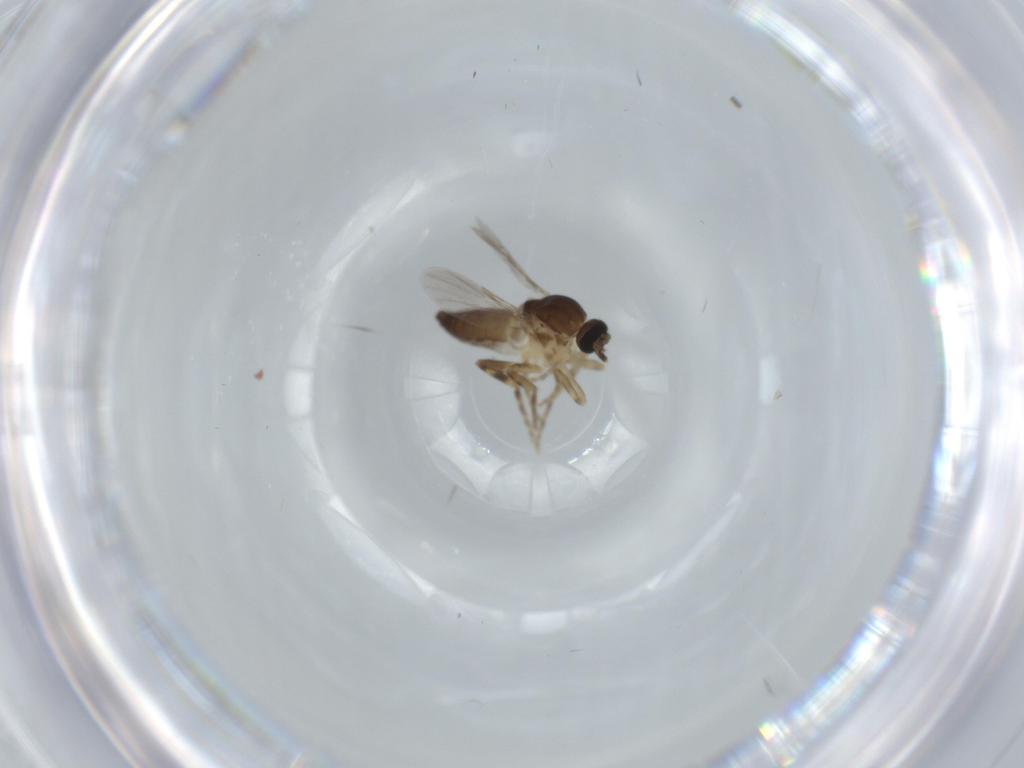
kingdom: Animalia
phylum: Arthropoda
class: Insecta
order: Diptera
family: Ceratopogonidae
